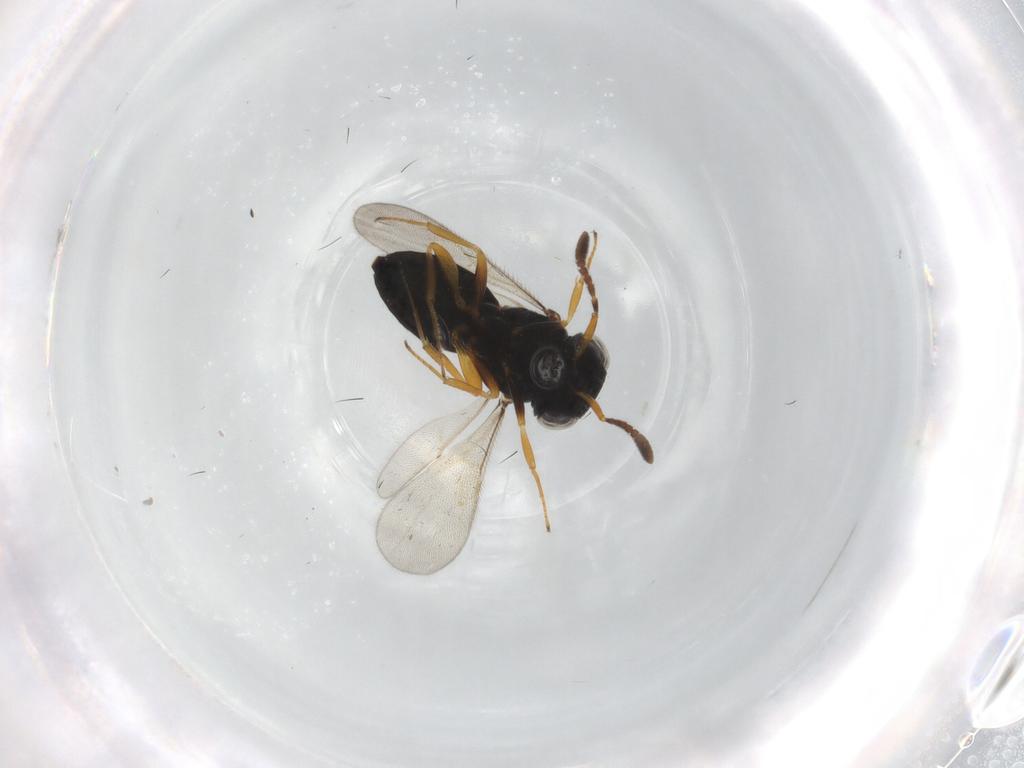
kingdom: Animalia
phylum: Arthropoda
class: Insecta
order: Hymenoptera
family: Scelionidae
